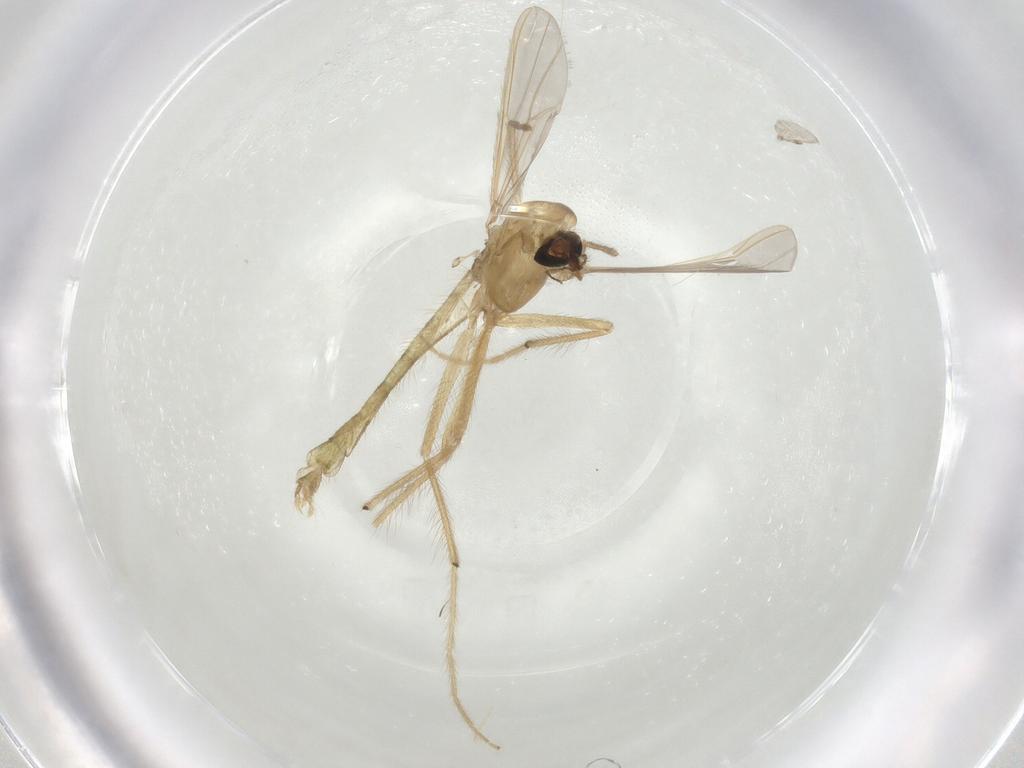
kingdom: Animalia
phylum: Arthropoda
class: Insecta
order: Diptera
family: Chironomidae
